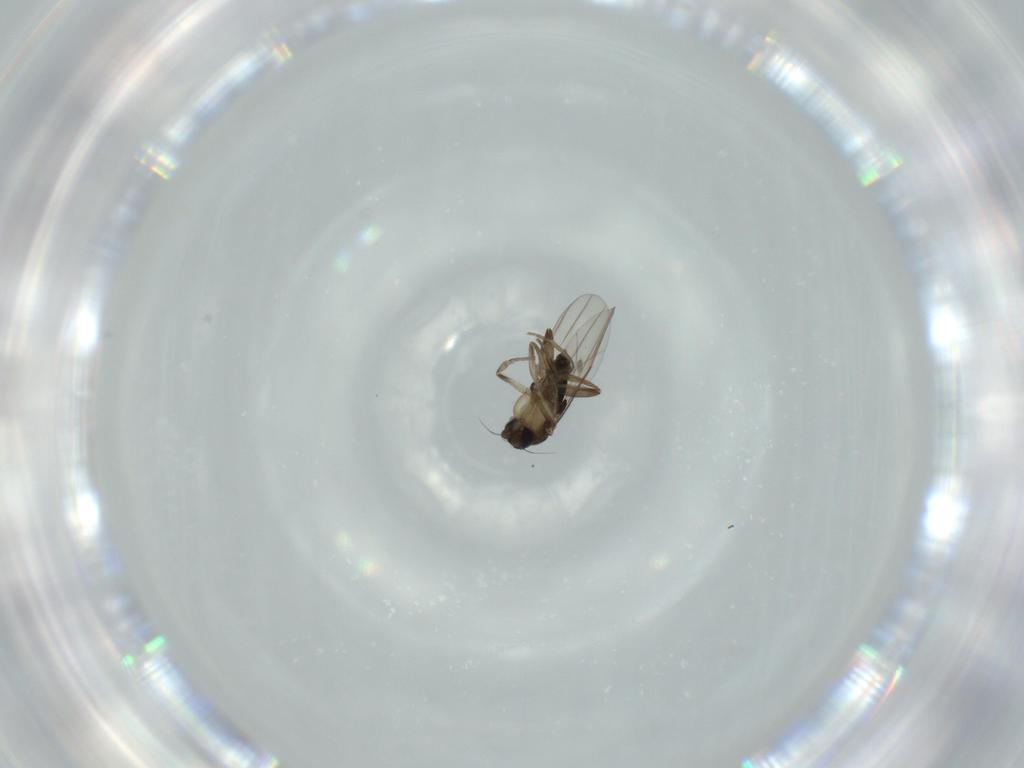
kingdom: Animalia
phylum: Arthropoda
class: Insecta
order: Diptera
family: Phoridae
